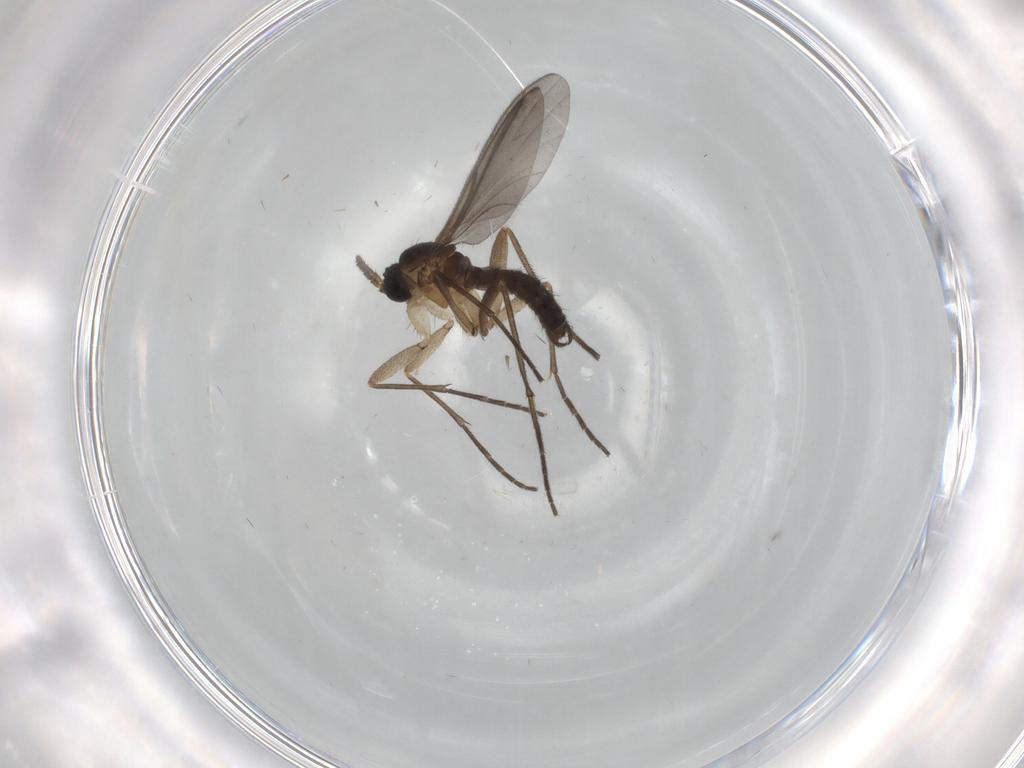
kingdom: Animalia
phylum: Arthropoda
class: Insecta
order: Diptera
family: Sciaridae
